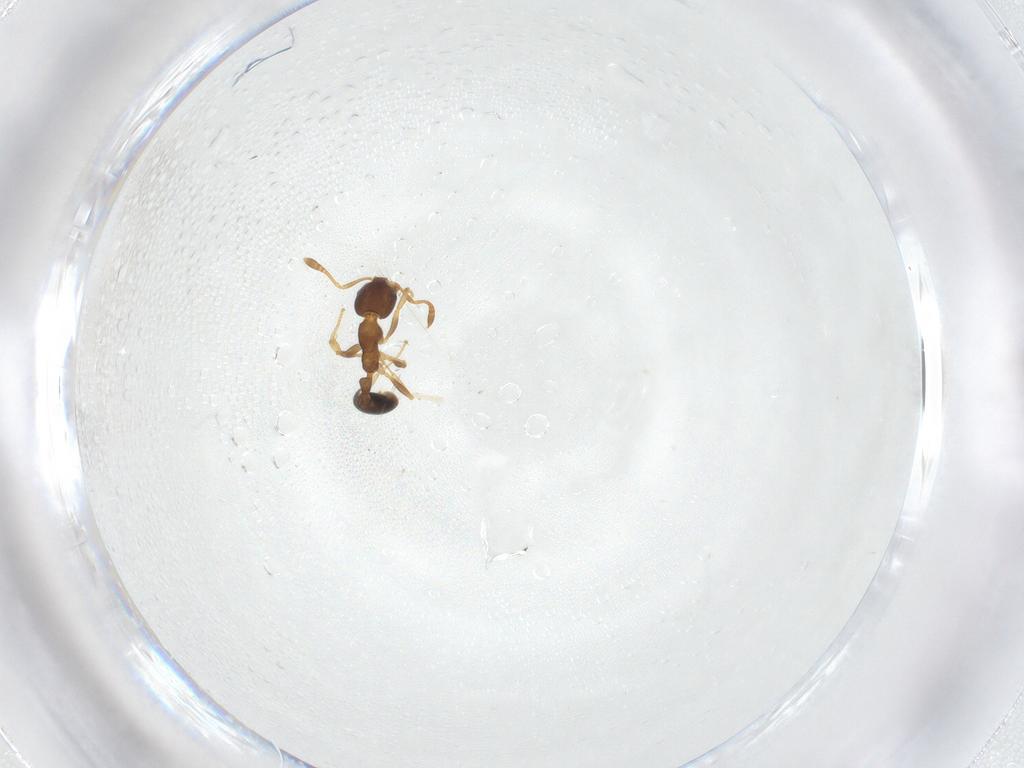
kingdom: Animalia
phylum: Arthropoda
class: Insecta
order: Hymenoptera
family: Formicidae
